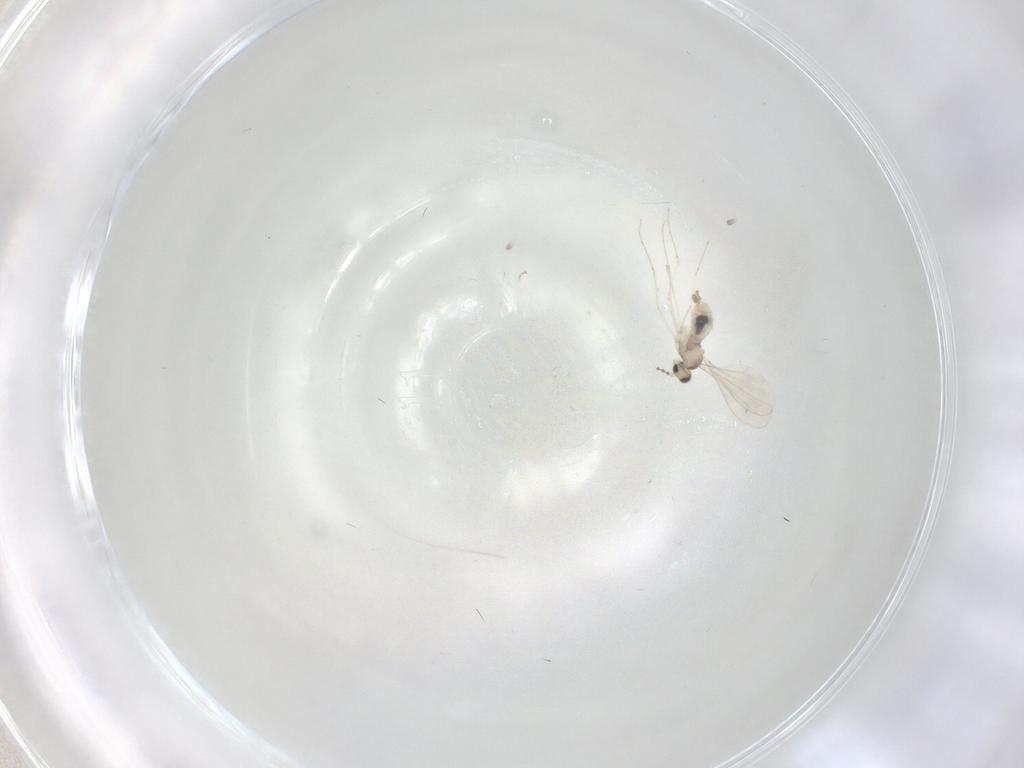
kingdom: Animalia
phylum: Arthropoda
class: Insecta
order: Diptera
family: Cecidomyiidae
